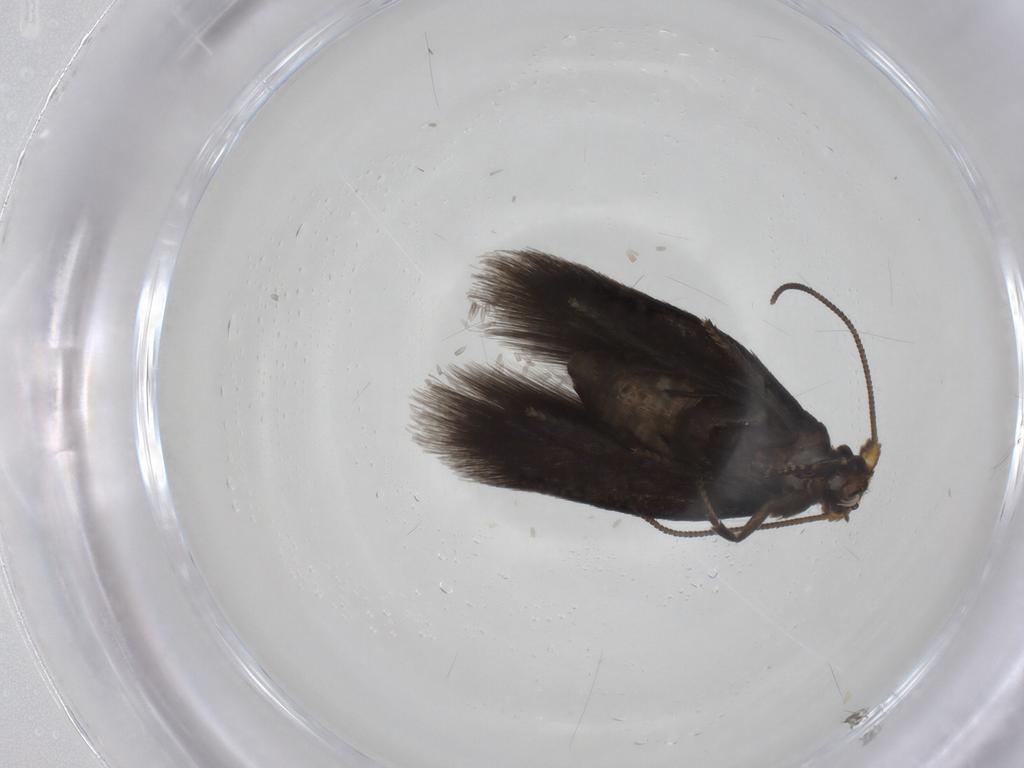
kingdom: Animalia
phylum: Arthropoda
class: Insecta
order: Lepidoptera
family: Nepticulidae
